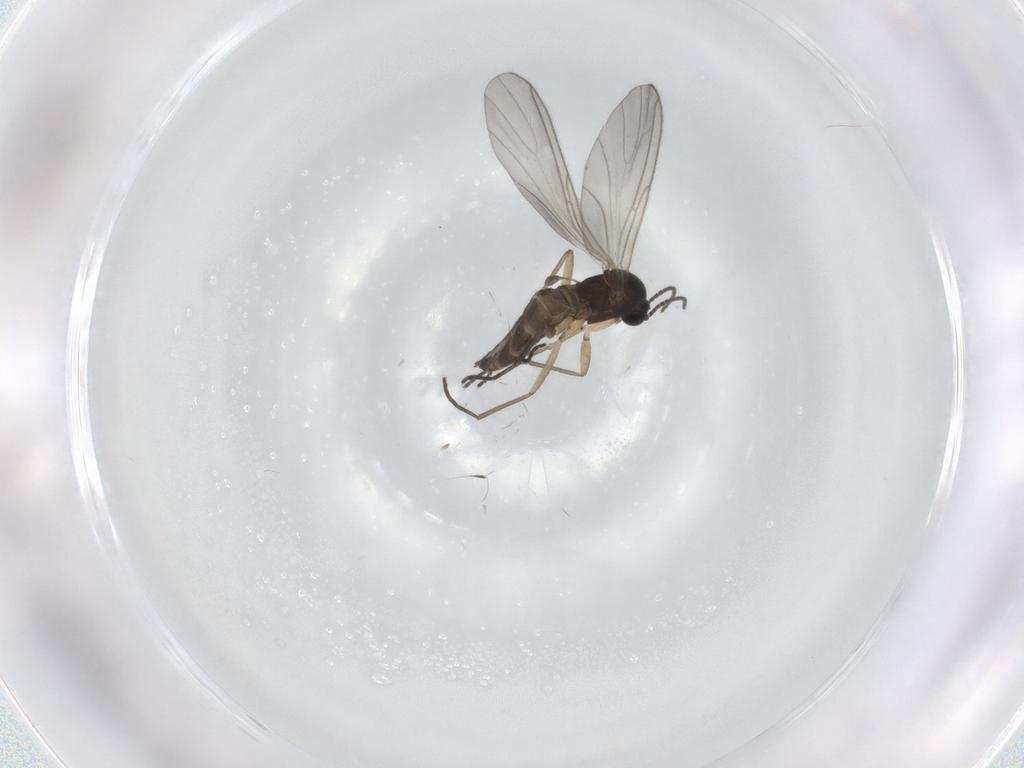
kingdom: Animalia
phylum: Arthropoda
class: Insecta
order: Diptera
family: Sciaridae
